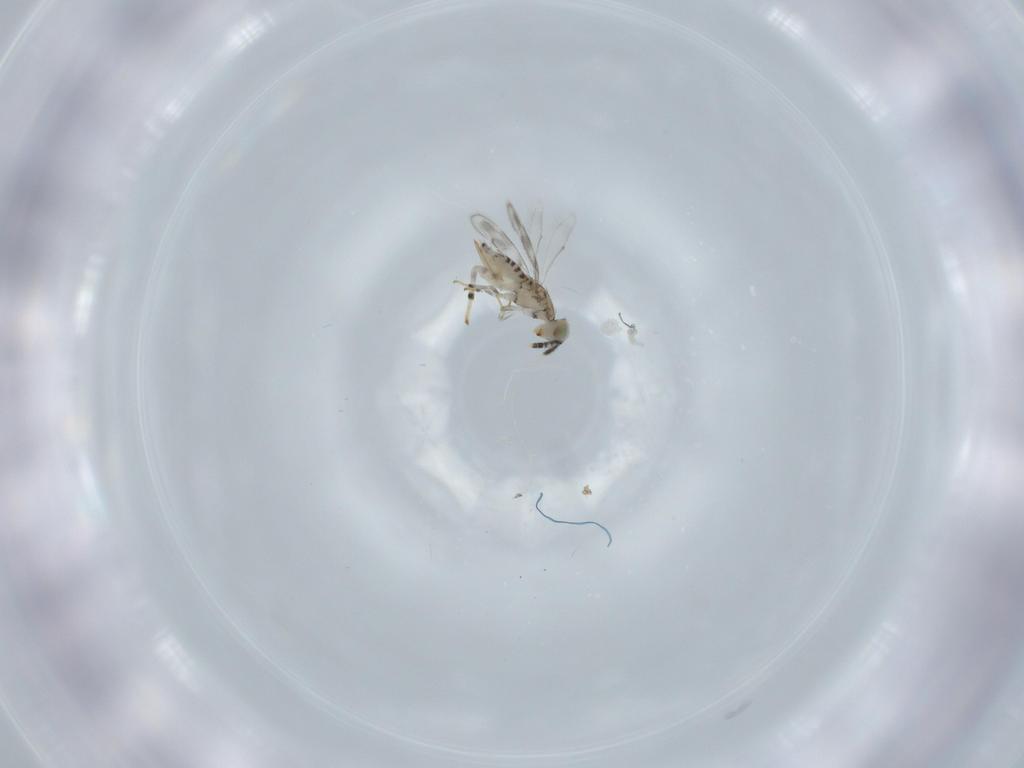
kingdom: Animalia
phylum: Arthropoda
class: Insecta
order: Hymenoptera
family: Aphelinidae
